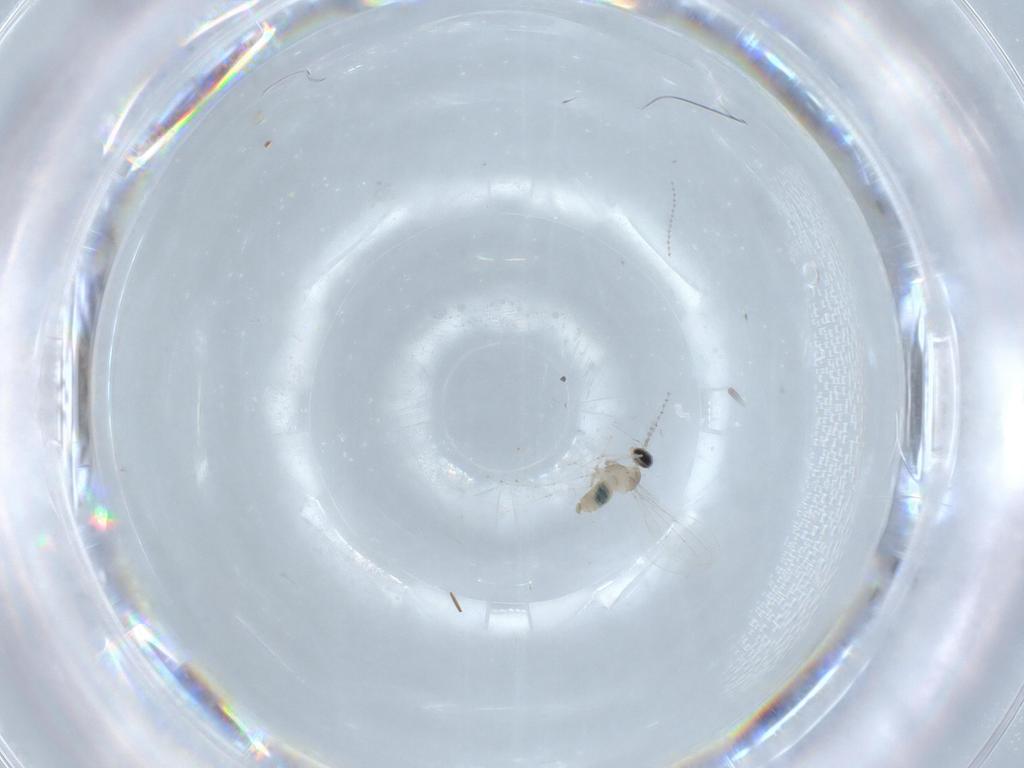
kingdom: Animalia
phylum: Arthropoda
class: Insecta
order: Diptera
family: Cecidomyiidae
